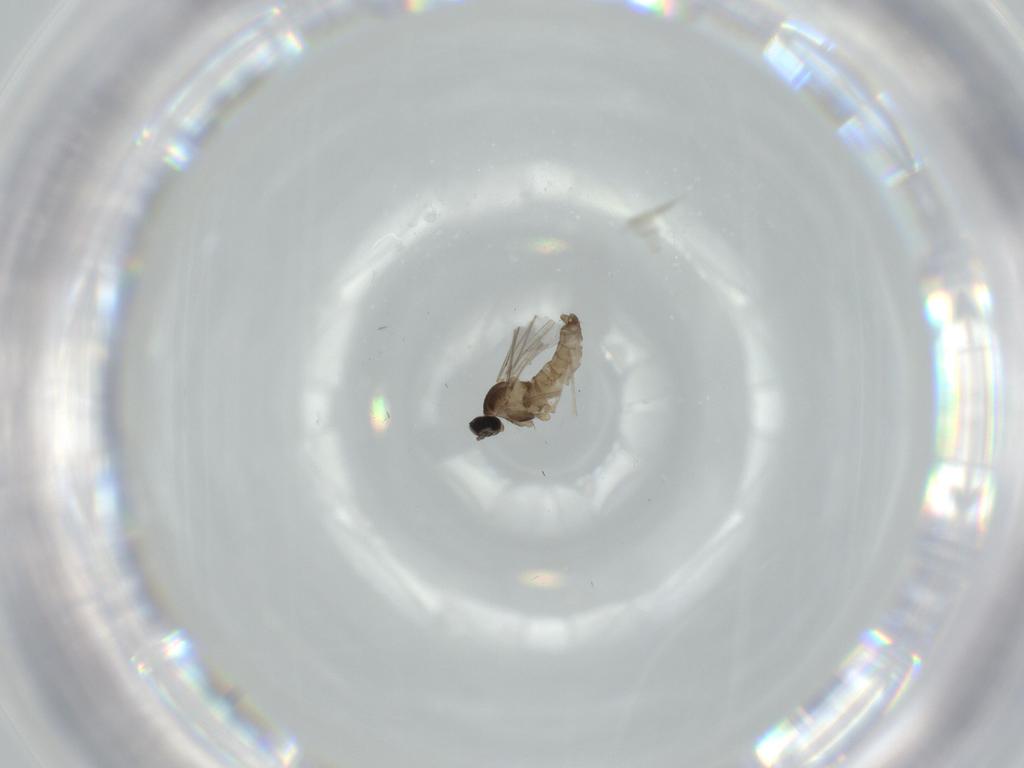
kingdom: Animalia
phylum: Arthropoda
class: Insecta
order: Diptera
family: Cecidomyiidae
